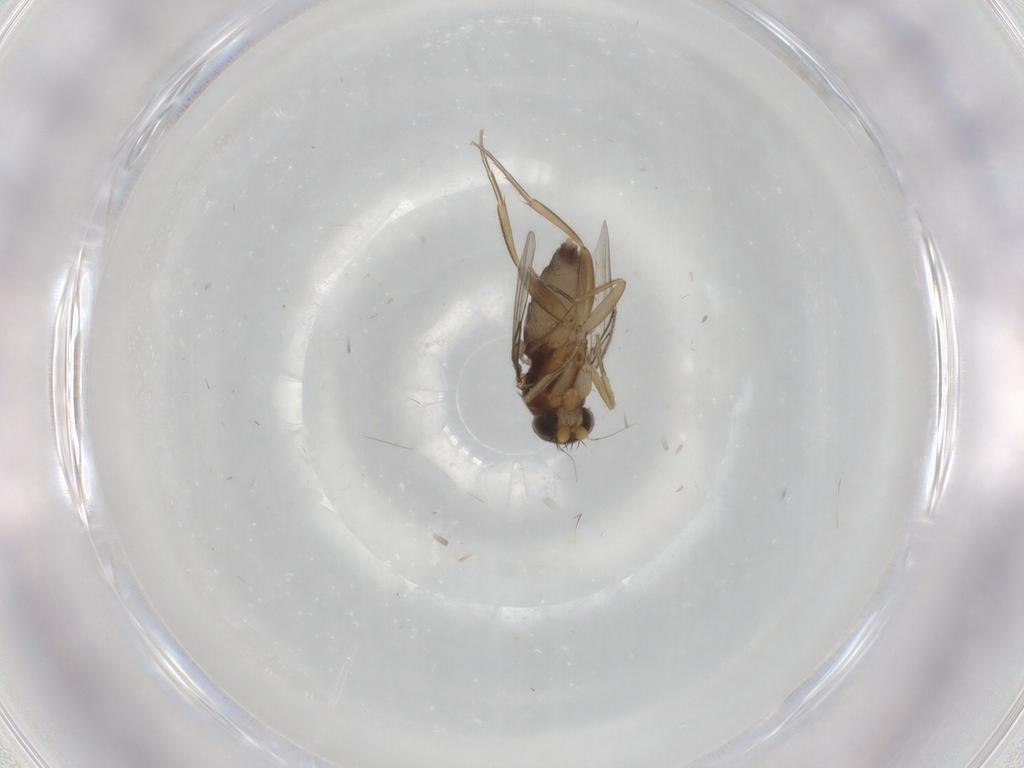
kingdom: Animalia
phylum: Arthropoda
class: Insecta
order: Diptera
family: Phoridae
